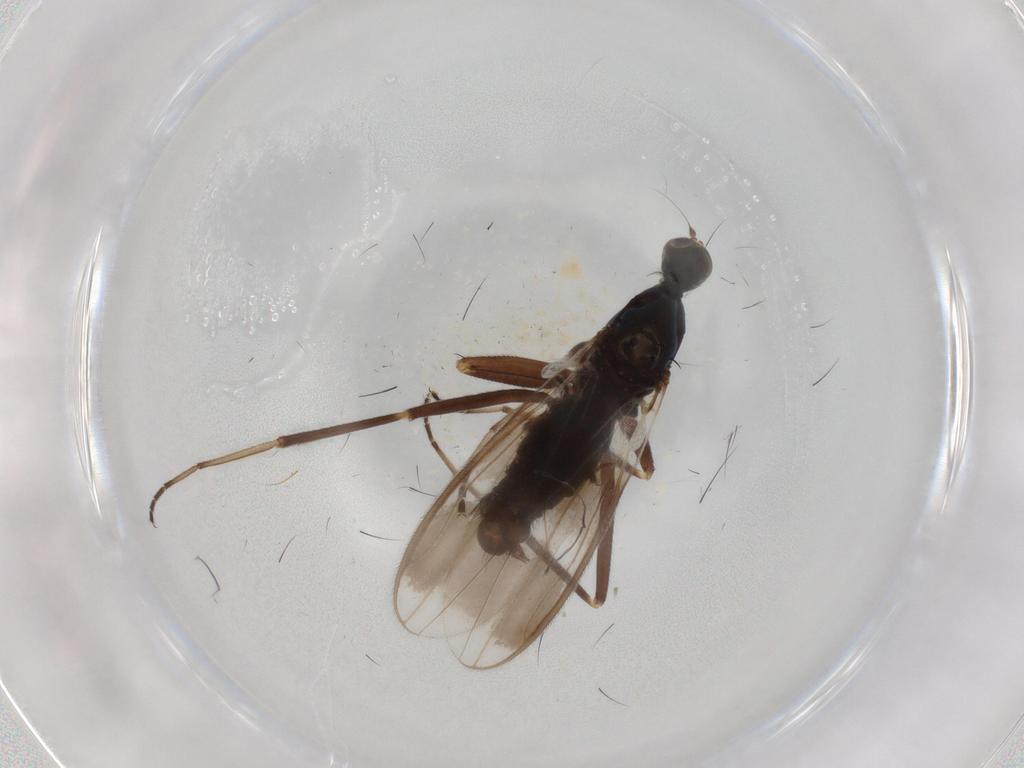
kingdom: Animalia
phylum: Arthropoda
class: Insecta
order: Diptera
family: Hybotidae
